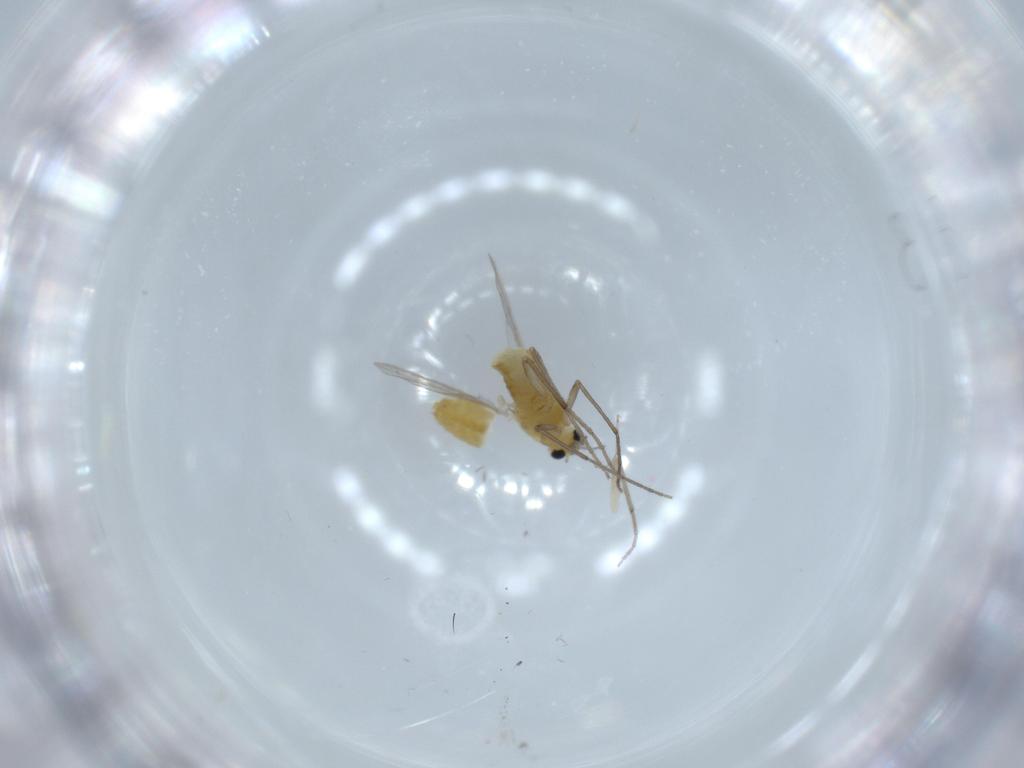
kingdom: Animalia
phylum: Arthropoda
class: Insecta
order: Diptera
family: Chironomidae
